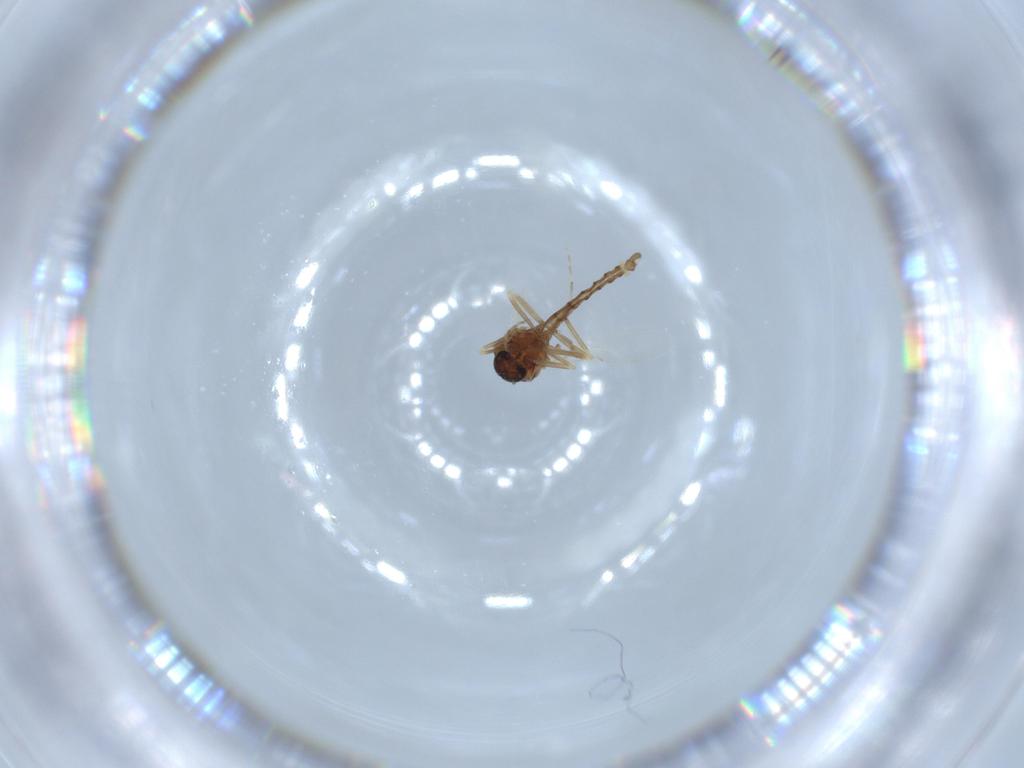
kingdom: Animalia
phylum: Arthropoda
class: Insecta
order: Diptera
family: Ceratopogonidae
